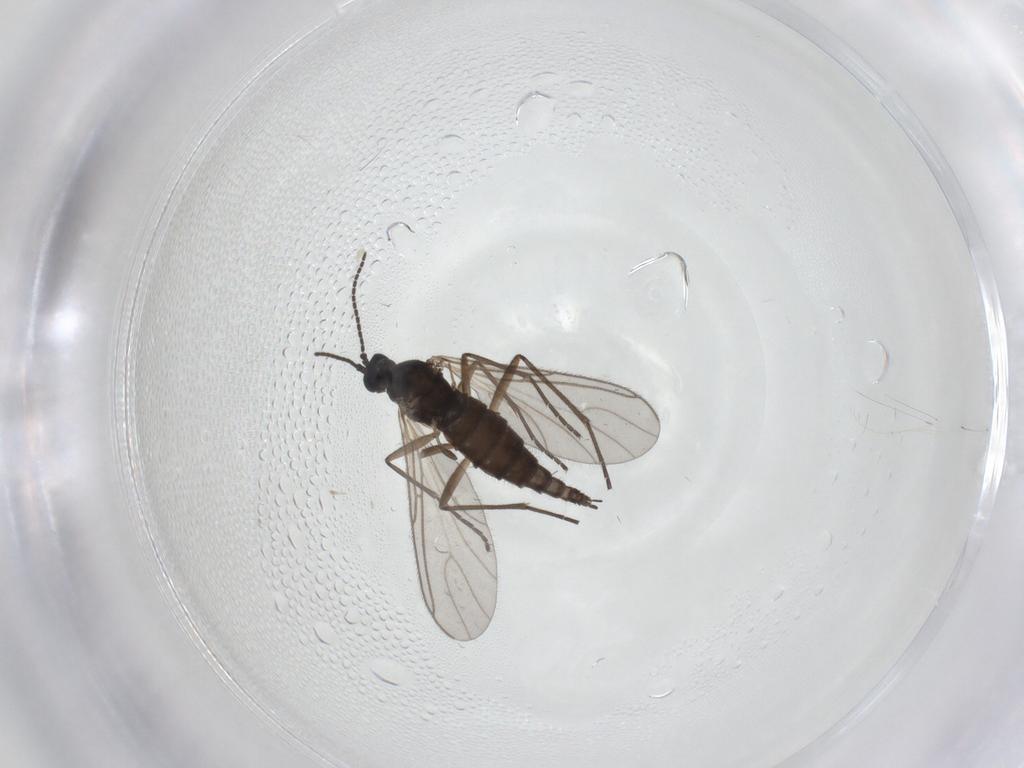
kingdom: Animalia
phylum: Arthropoda
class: Insecta
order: Diptera
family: Sciaridae
